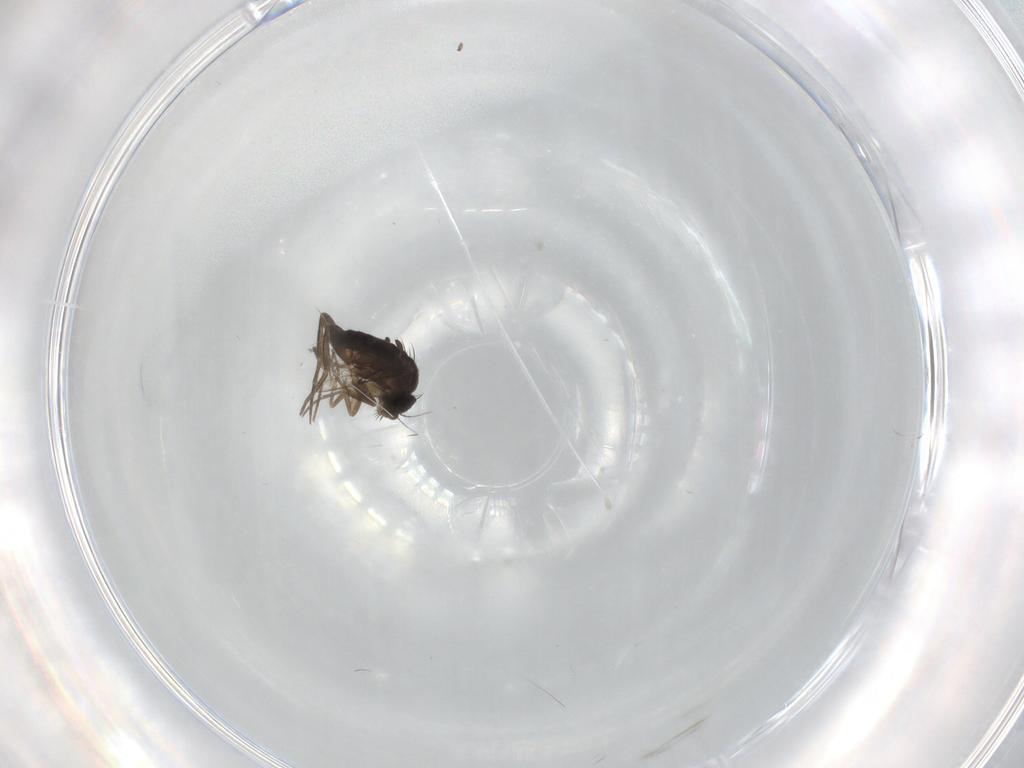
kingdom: Animalia
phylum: Arthropoda
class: Insecta
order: Diptera
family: Phoridae
